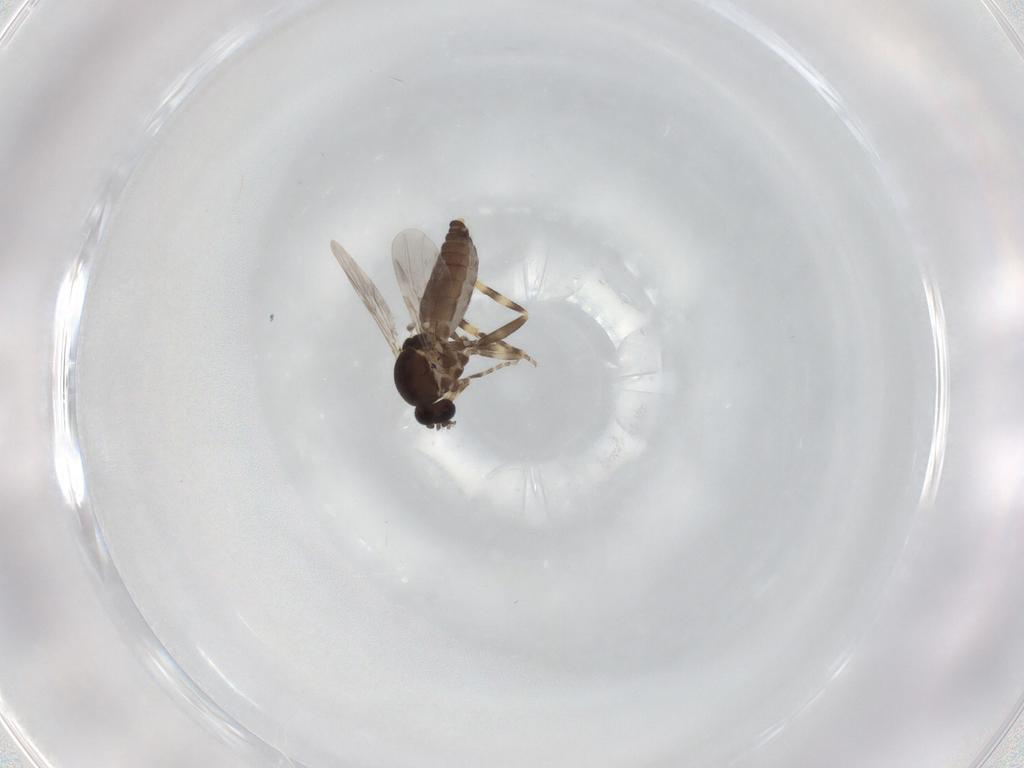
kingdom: Animalia
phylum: Arthropoda
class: Insecta
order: Diptera
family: Ceratopogonidae
